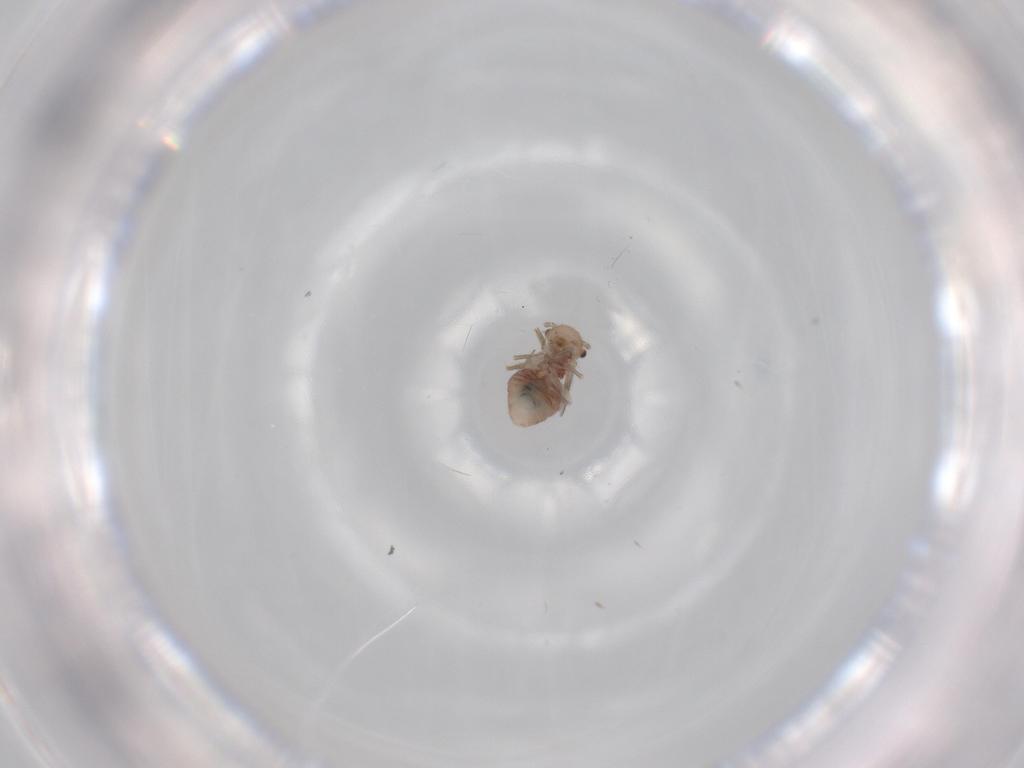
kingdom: Animalia
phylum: Arthropoda
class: Insecta
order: Psocodea
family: Ectopsocidae
